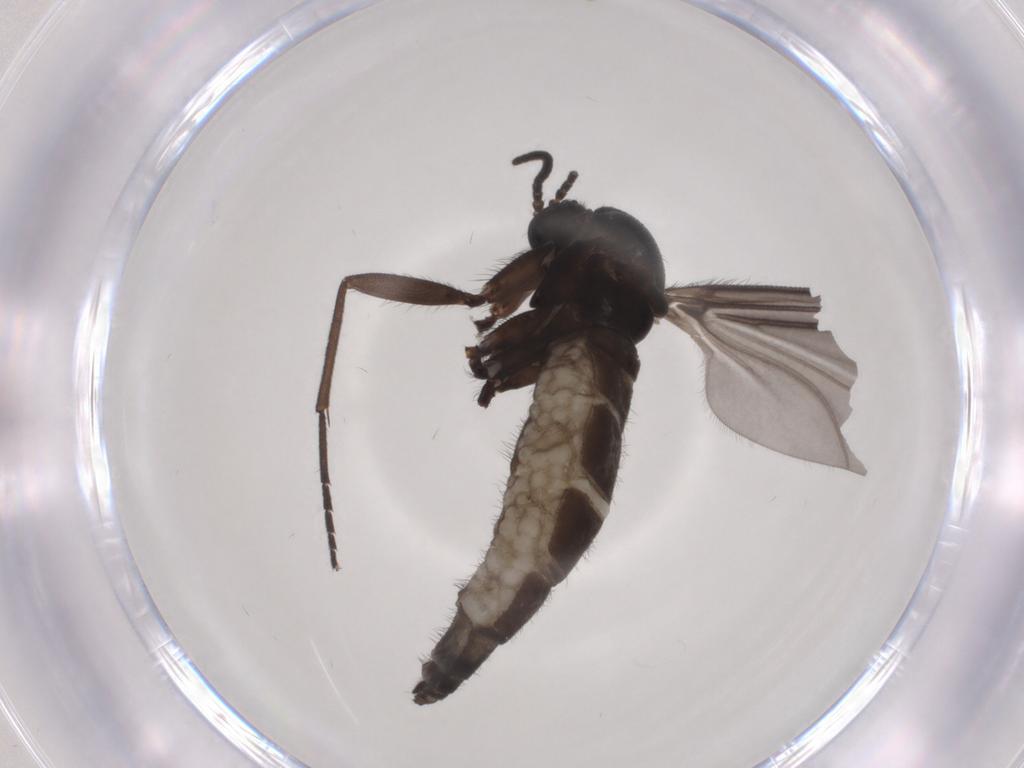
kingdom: Animalia
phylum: Arthropoda
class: Insecta
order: Diptera
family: Sciaridae
